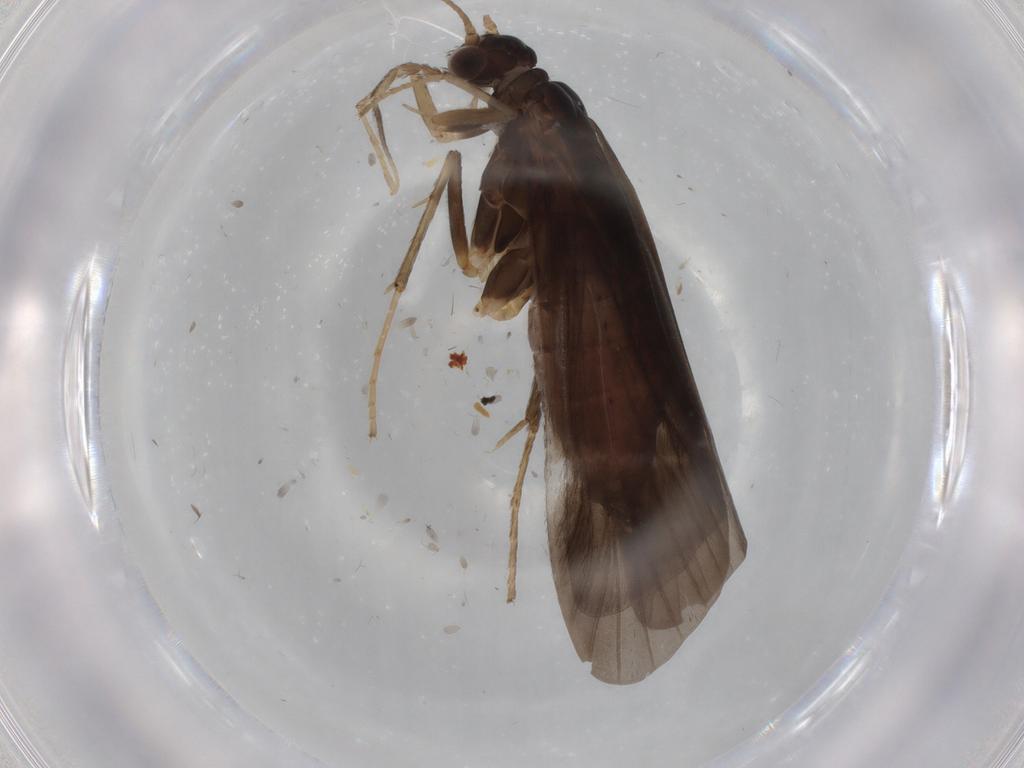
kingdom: Animalia
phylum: Arthropoda
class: Insecta
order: Trichoptera
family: Hydropsychidae
